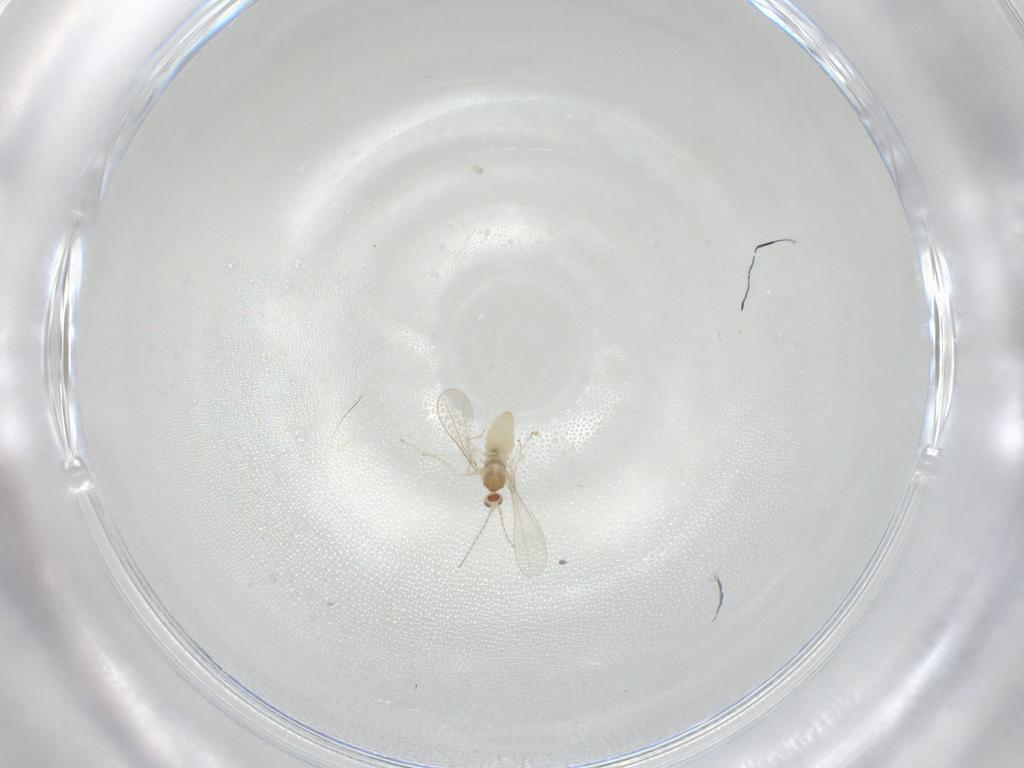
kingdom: Animalia
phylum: Arthropoda
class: Insecta
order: Diptera
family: Cecidomyiidae
